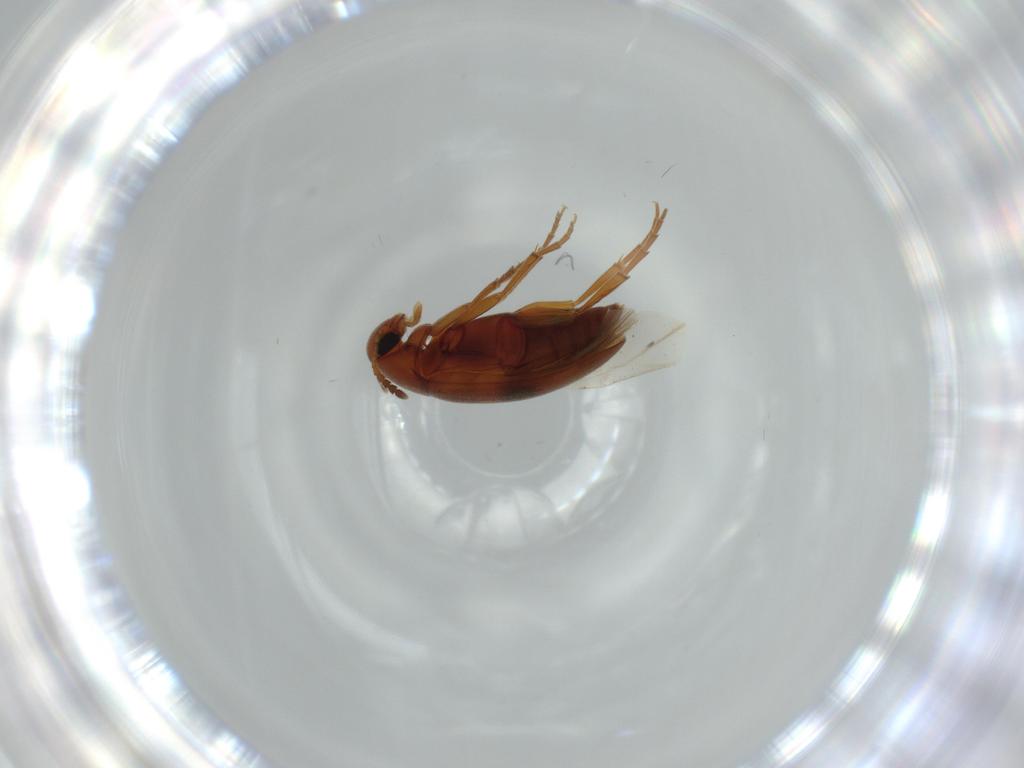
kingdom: Animalia
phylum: Arthropoda
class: Insecta
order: Coleoptera
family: Scraptiidae
